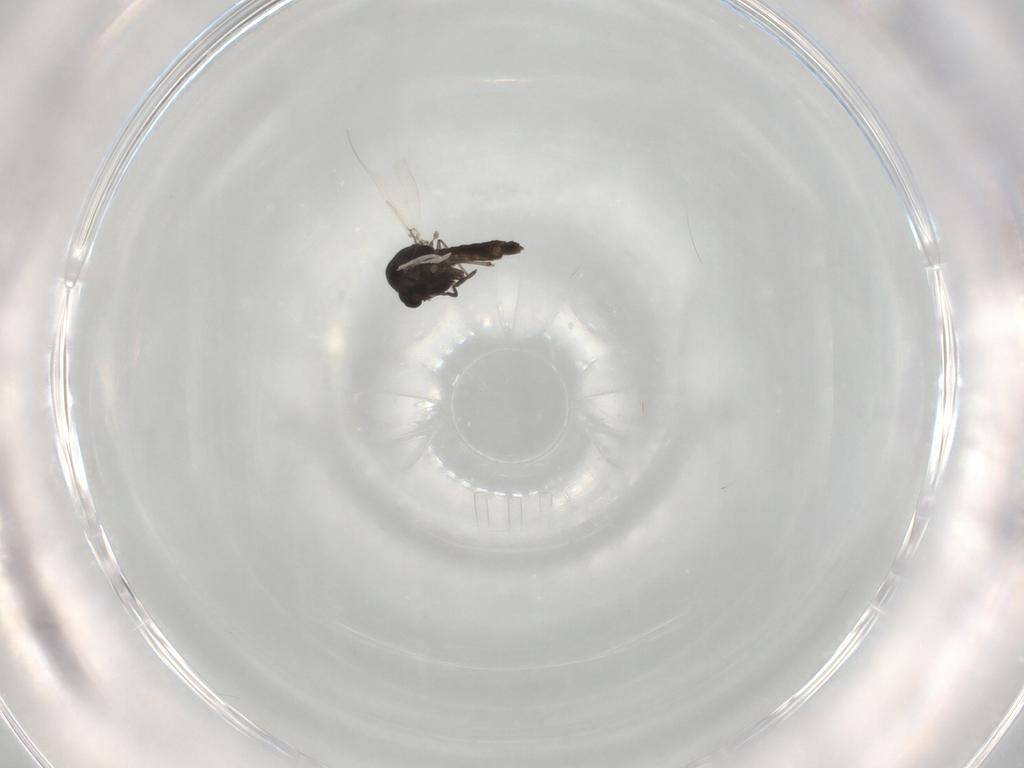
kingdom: Animalia
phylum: Arthropoda
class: Insecta
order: Diptera
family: Chironomidae
